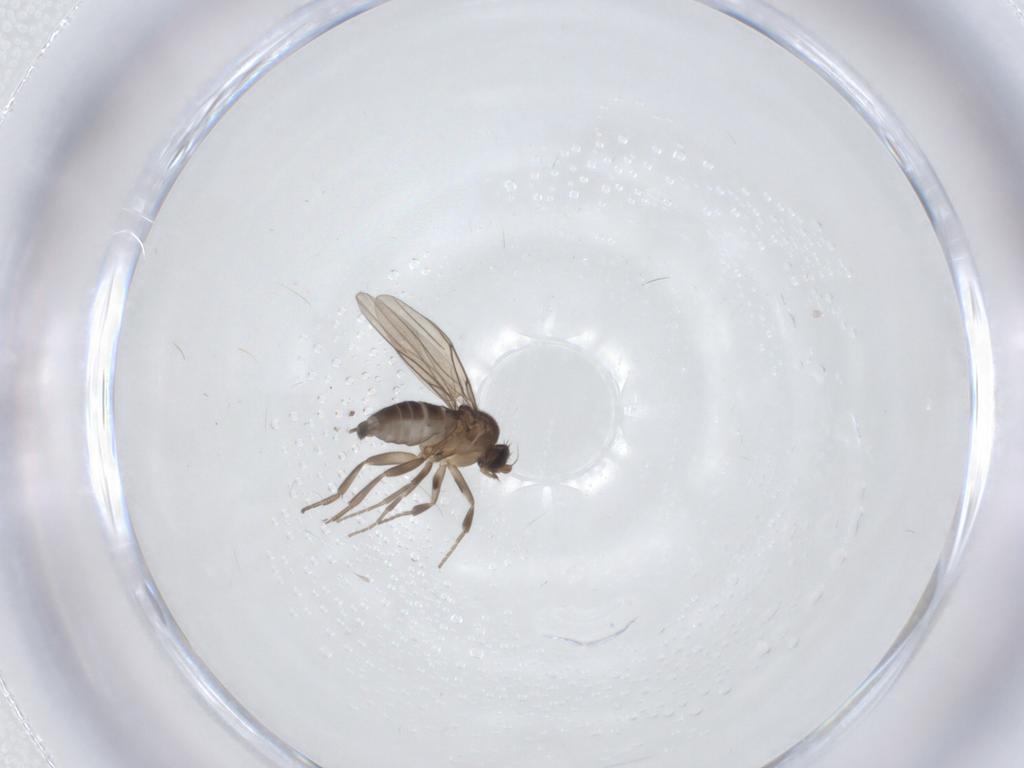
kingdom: Animalia
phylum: Arthropoda
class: Insecta
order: Diptera
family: Phoridae
